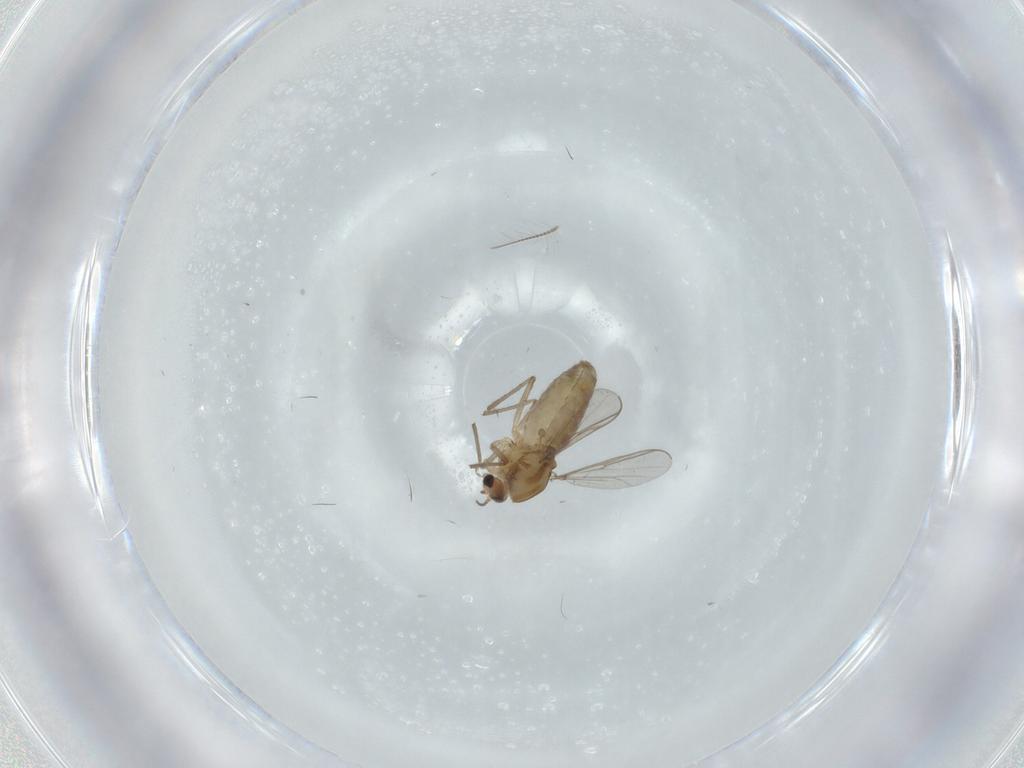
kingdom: Animalia
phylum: Arthropoda
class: Insecta
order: Diptera
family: Chironomidae
